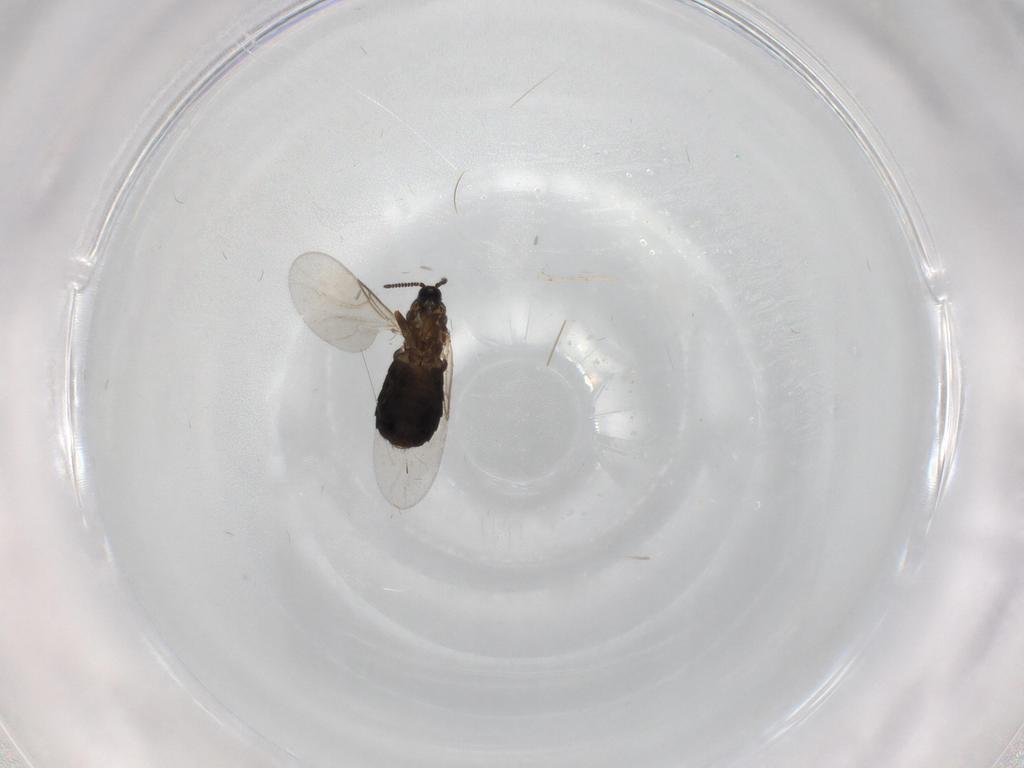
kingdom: Animalia
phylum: Arthropoda
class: Insecta
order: Diptera
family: Scatopsidae
